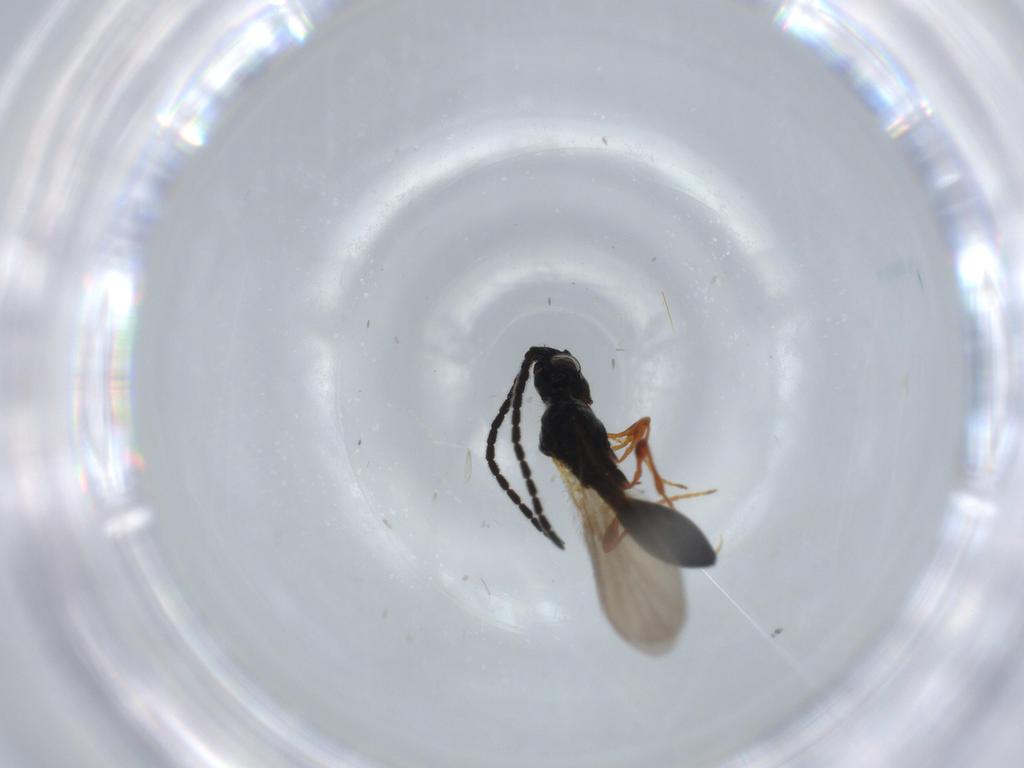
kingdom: Animalia
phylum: Arthropoda
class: Insecta
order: Hymenoptera
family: Diapriidae
